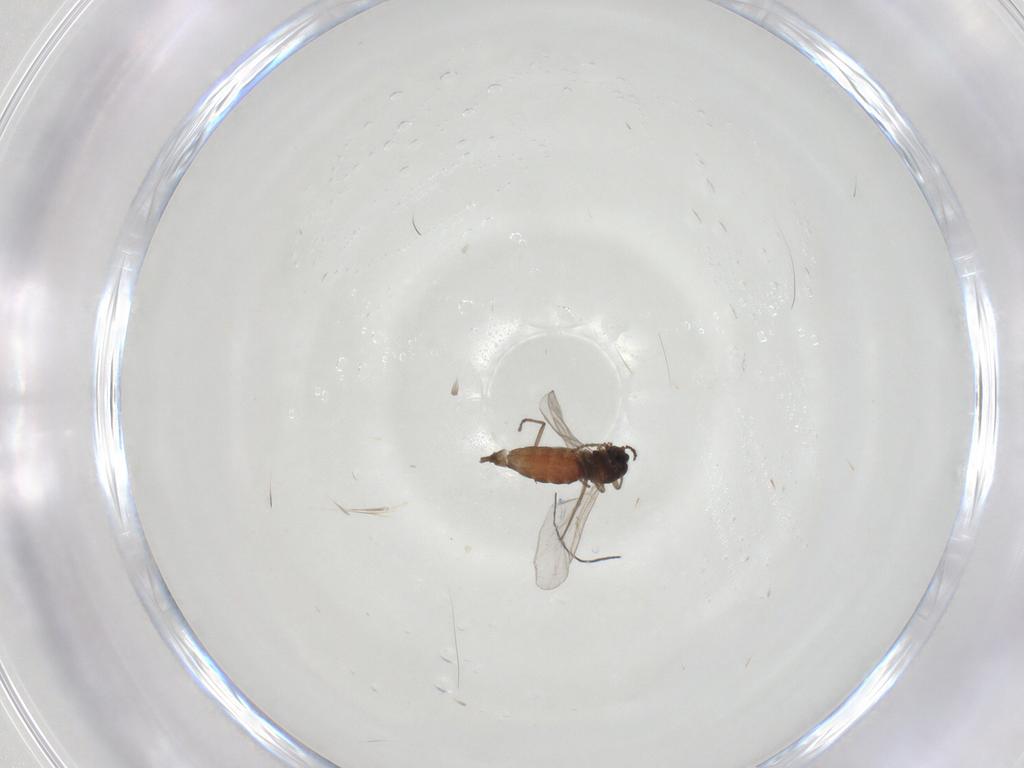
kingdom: Animalia
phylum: Arthropoda
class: Insecta
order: Diptera
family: Cecidomyiidae
